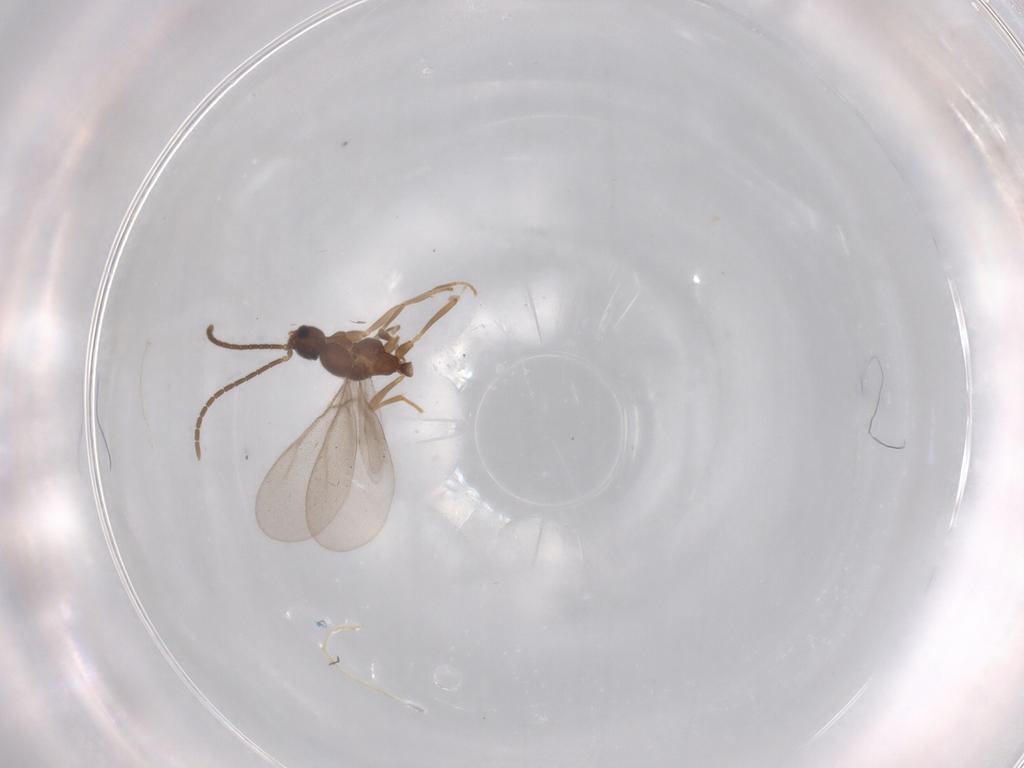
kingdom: Animalia
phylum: Arthropoda
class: Insecta
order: Hymenoptera
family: Formicidae
